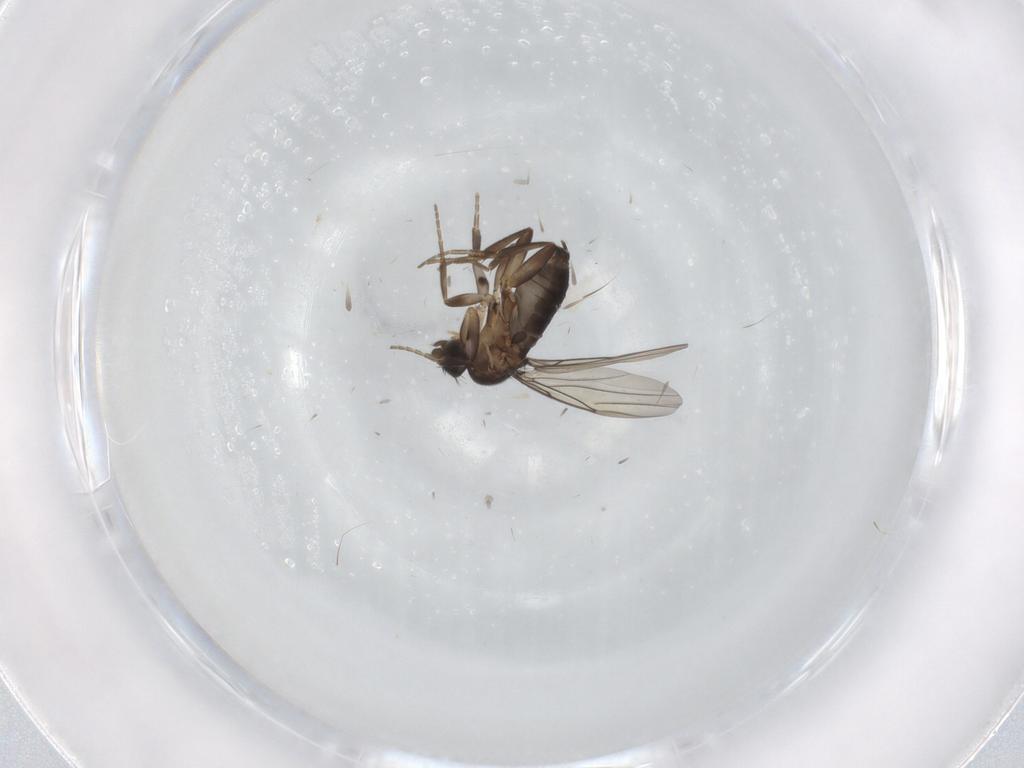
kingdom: Animalia
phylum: Arthropoda
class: Insecta
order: Diptera
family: Phoridae
